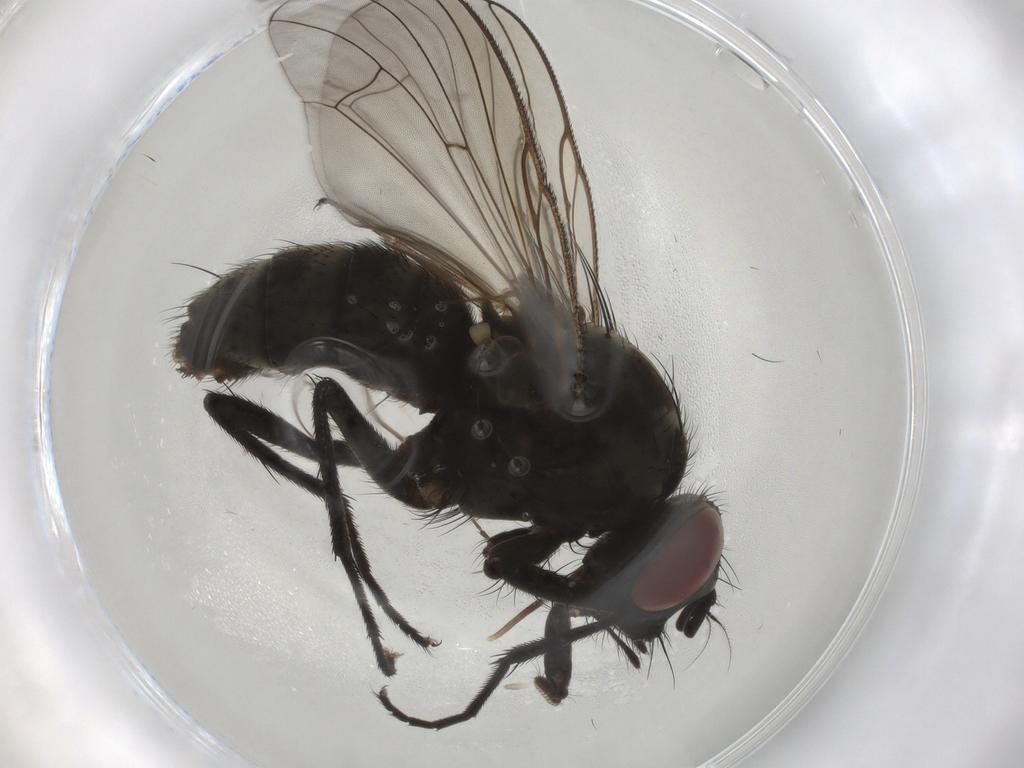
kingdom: Animalia
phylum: Arthropoda
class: Insecta
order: Diptera
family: Muscidae
